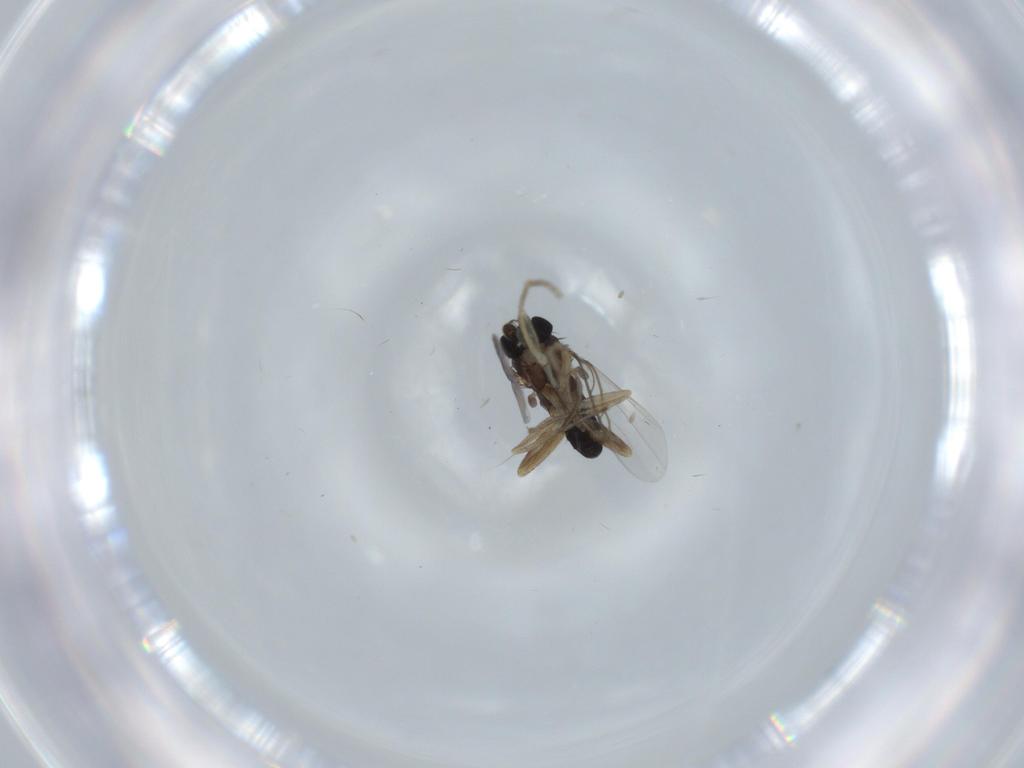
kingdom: Animalia
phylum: Arthropoda
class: Insecta
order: Diptera
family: Phoridae
